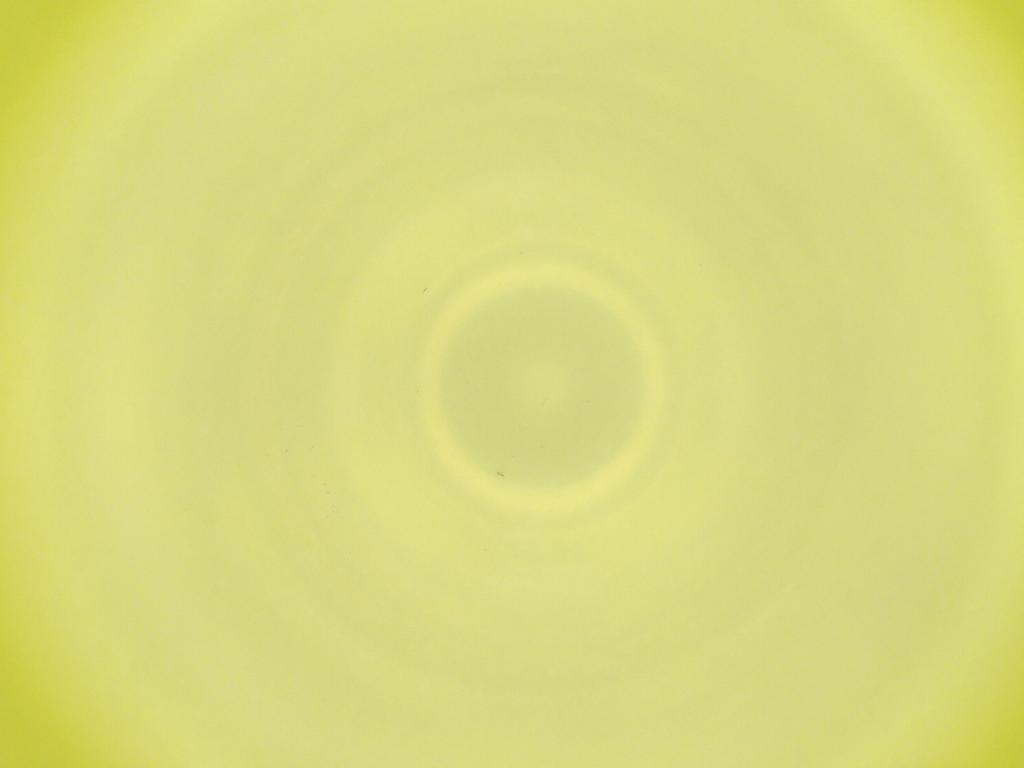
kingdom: Animalia
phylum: Arthropoda
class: Insecta
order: Diptera
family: Cecidomyiidae
